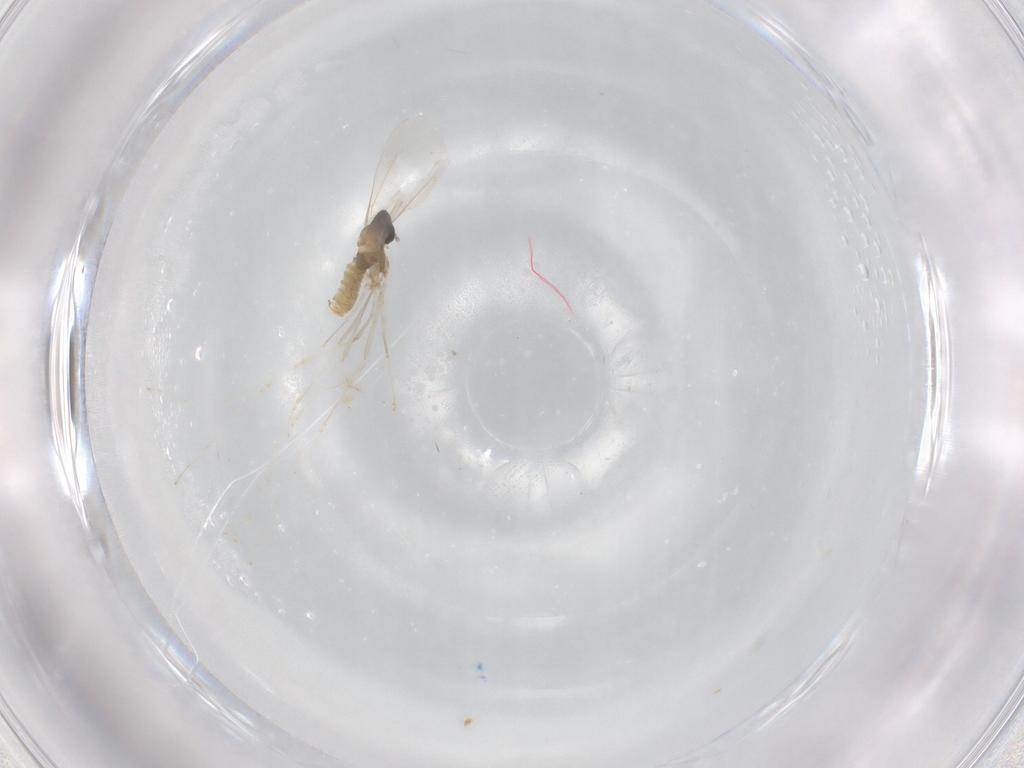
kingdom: Animalia
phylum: Arthropoda
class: Insecta
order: Diptera
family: Cecidomyiidae
